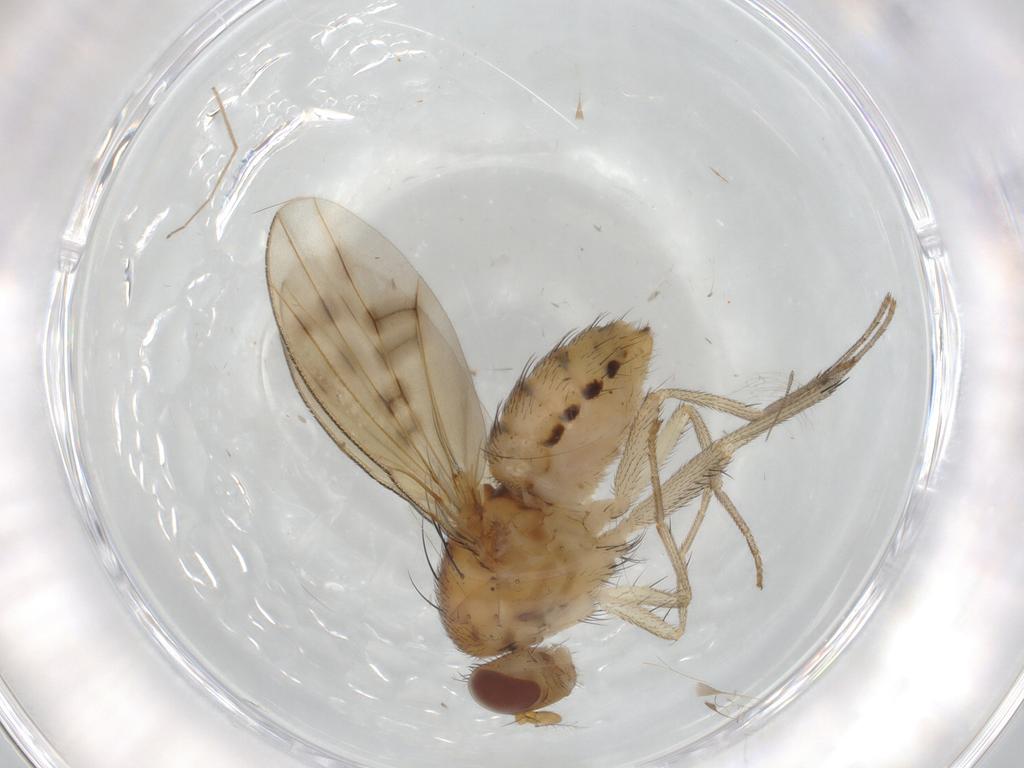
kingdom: Animalia
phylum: Arthropoda
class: Insecta
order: Diptera
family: Chironomidae
